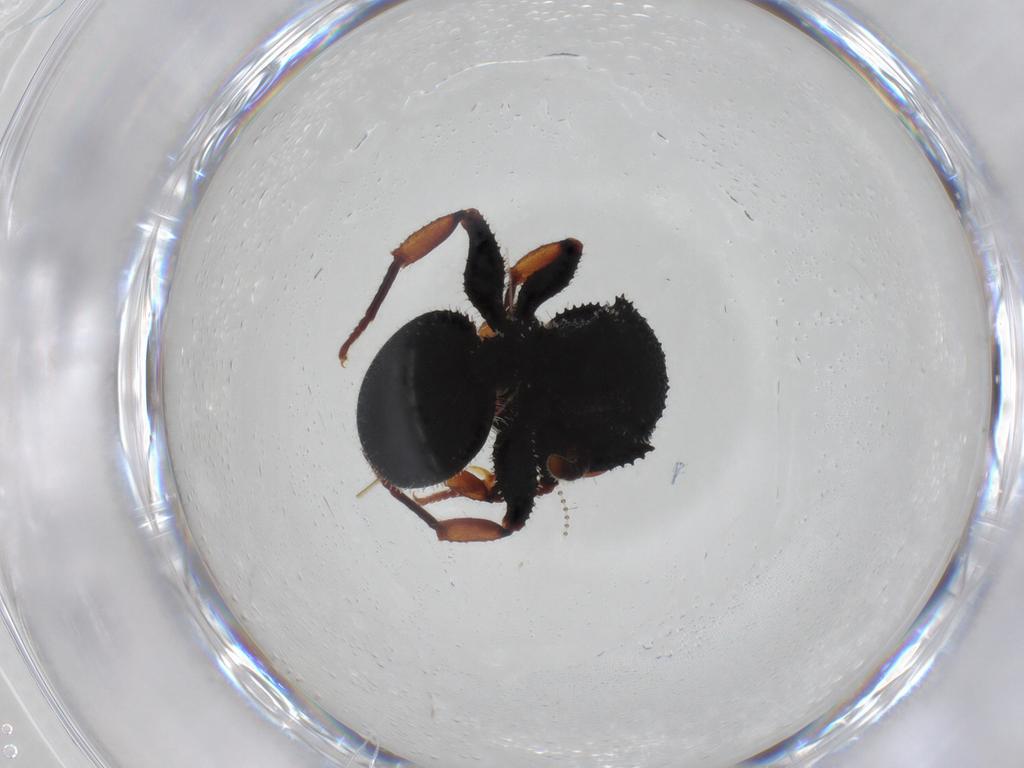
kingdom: Animalia
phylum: Arthropoda
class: Insecta
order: Hymenoptera
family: Formicidae
